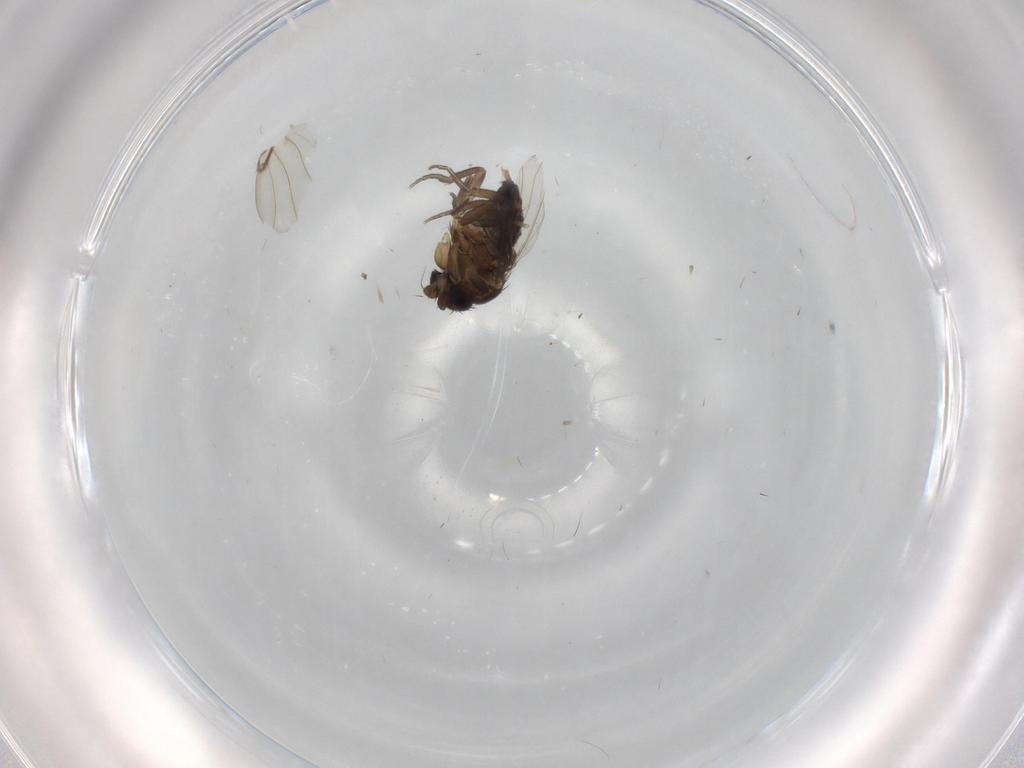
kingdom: Animalia
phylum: Arthropoda
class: Insecta
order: Diptera
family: Sciaridae
